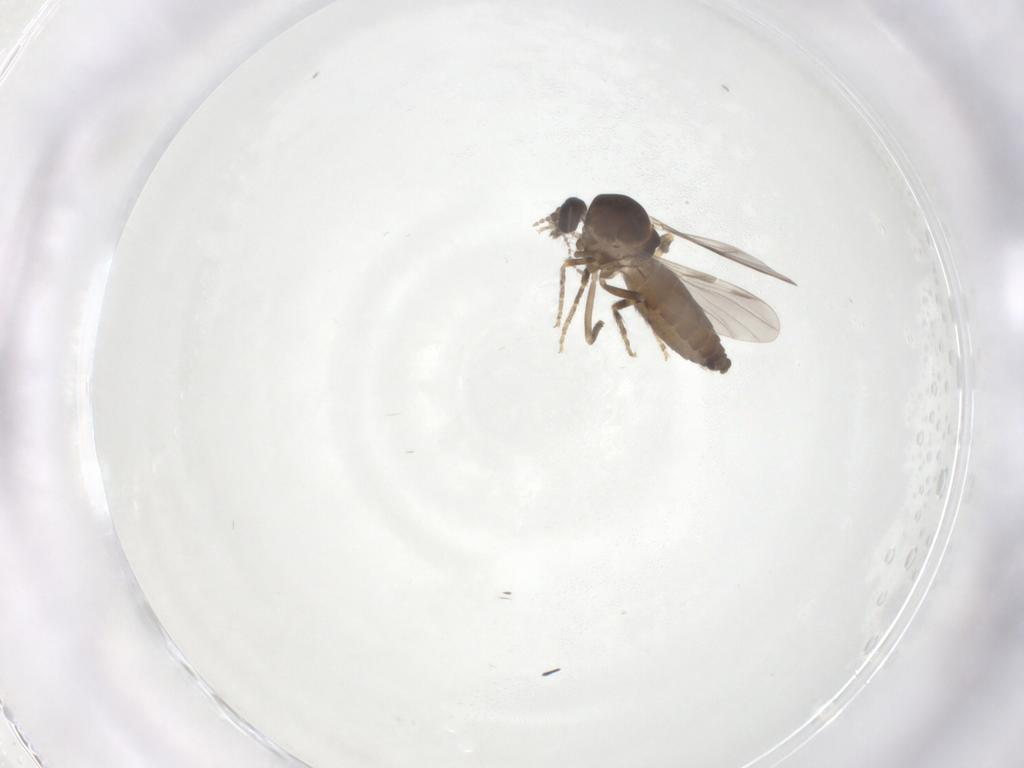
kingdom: Animalia
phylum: Arthropoda
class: Insecta
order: Diptera
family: Ceratopogonidae
